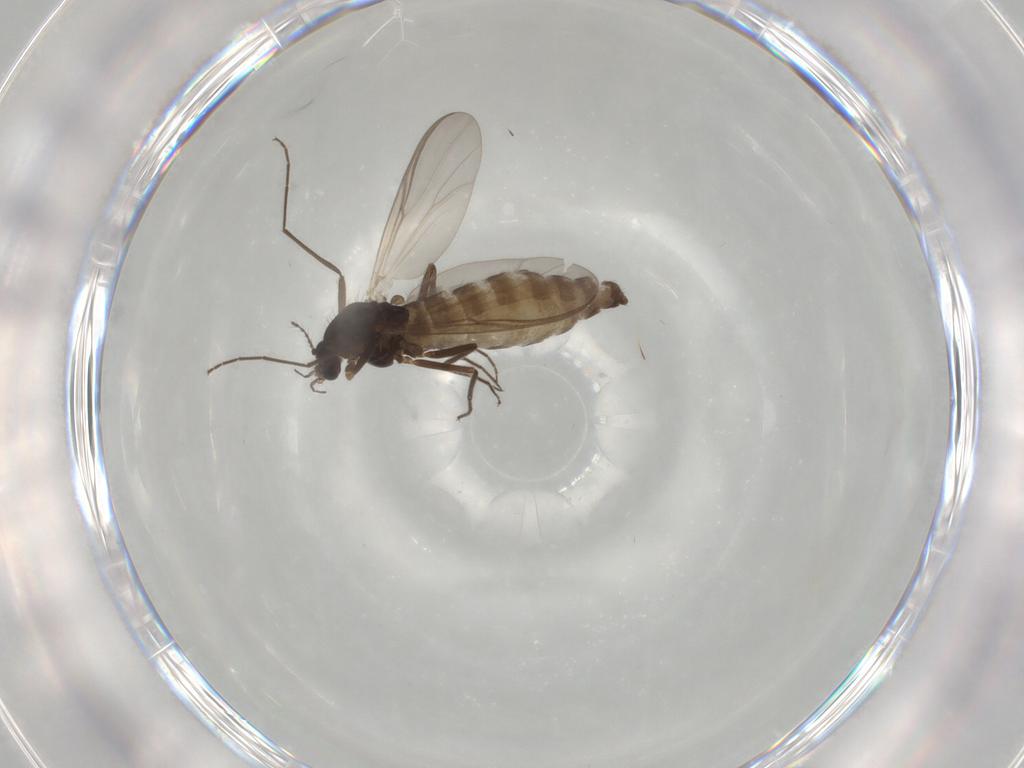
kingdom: Animalia
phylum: Arthropoda
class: Insecta
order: Diptera
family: Chironomidae
